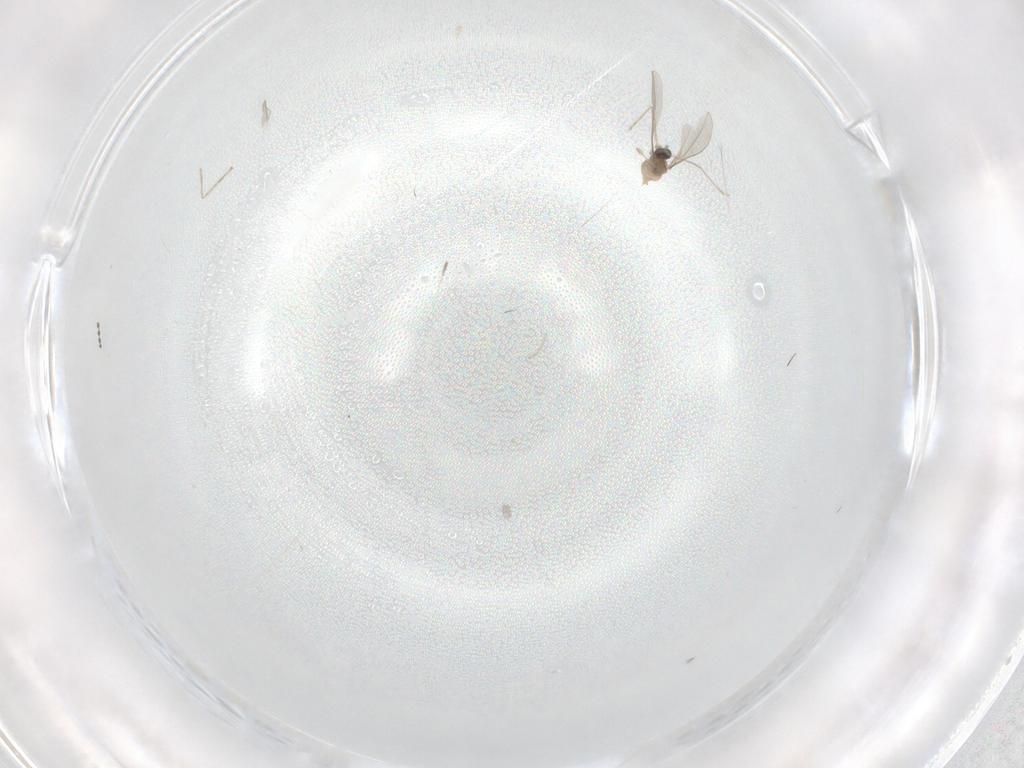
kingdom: Animalia
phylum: Arthropoda
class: Insecta
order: Diptera
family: Cecidomyiidae
